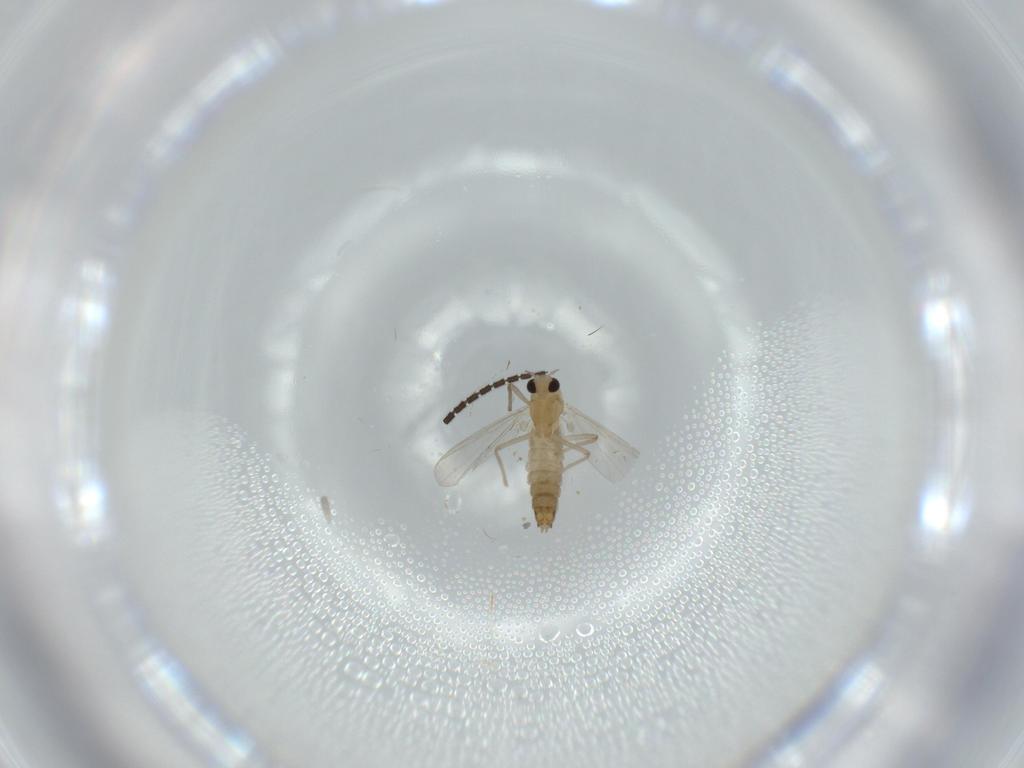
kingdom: Animalia
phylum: Arthropoda
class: Insecta
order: Diptera
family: Chironomidae
